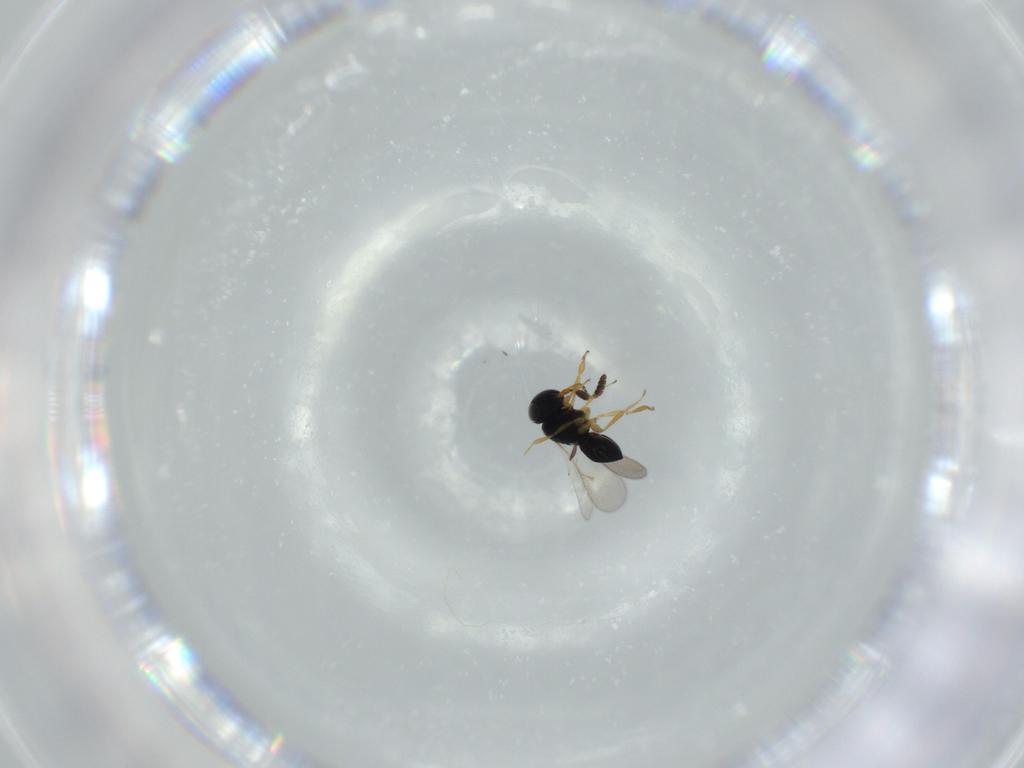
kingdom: Animalia
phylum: Arthropoda
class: Insecta
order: Hymenoptera
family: Scelionidae
